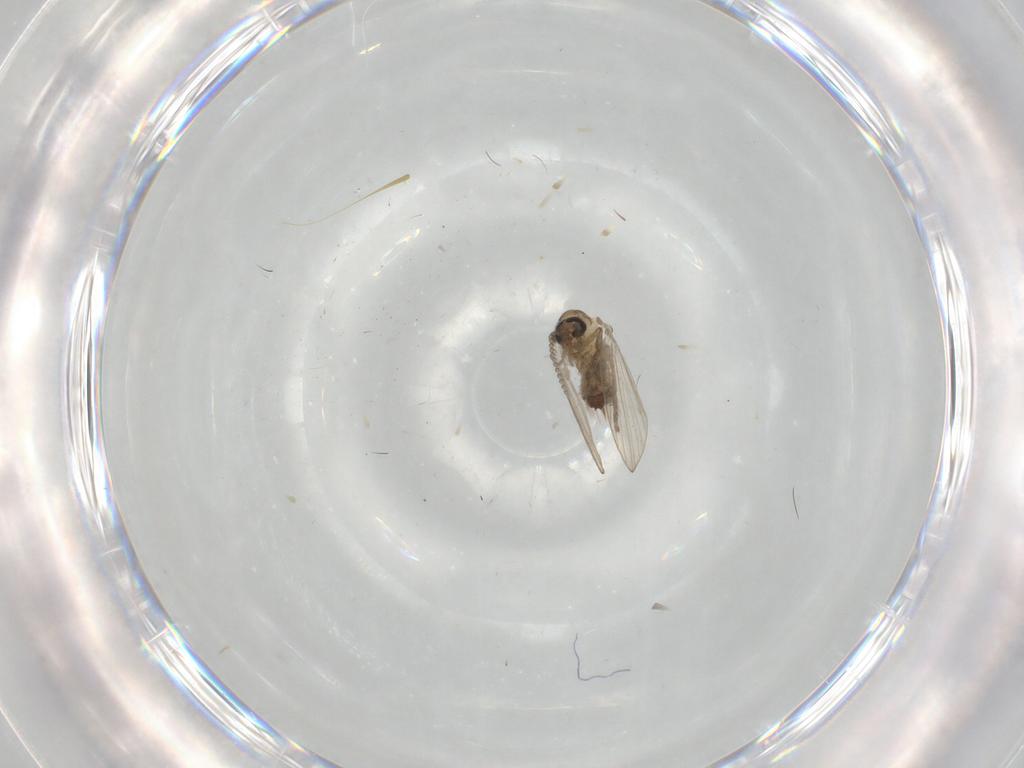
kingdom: Animalia
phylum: Arthropoda
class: Insecta
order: Diptera
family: Psychodidae
